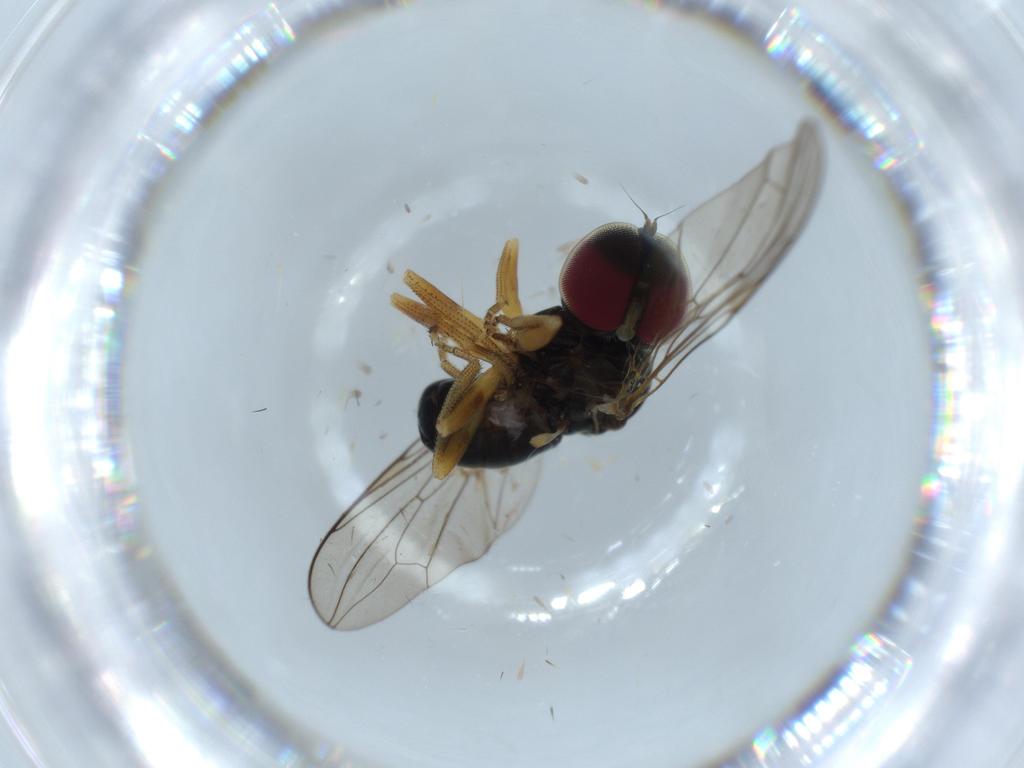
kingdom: Animalia
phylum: Arthropoda
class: Insecta
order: Diptera
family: Pipunculidae
